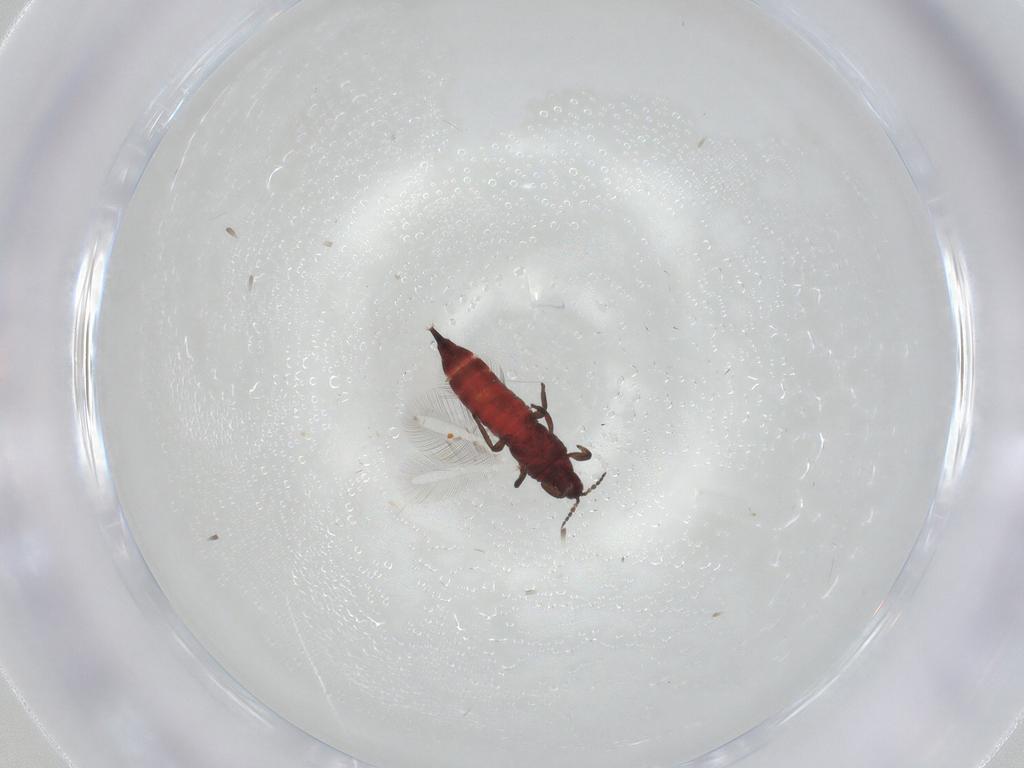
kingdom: Animalia
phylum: Arthropoda
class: Insecta
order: Thysanoptera
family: Phlaeothripidae
